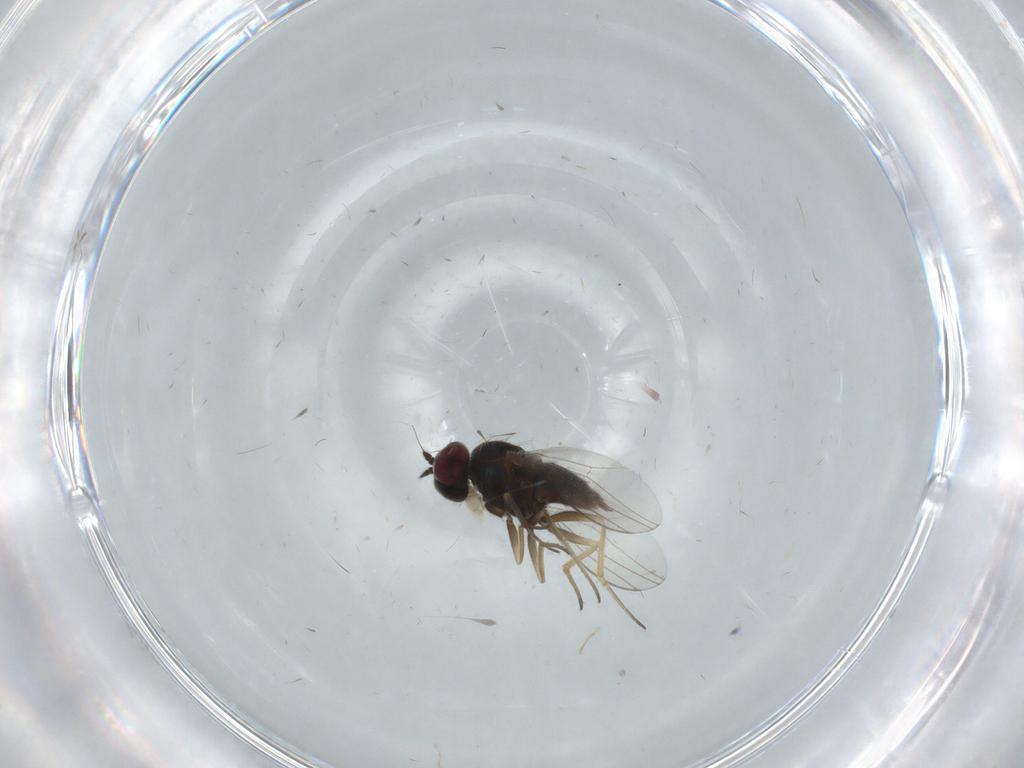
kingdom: Animalia
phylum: Arthropoda
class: Insecta
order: Diptera
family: Dolichopodidae
